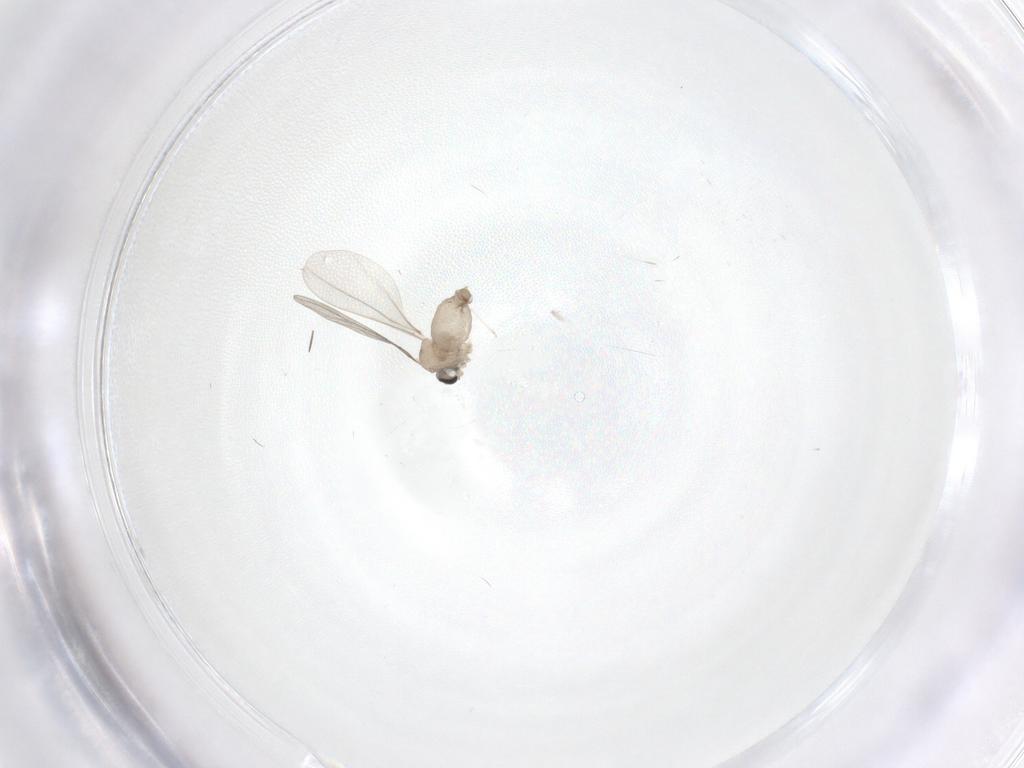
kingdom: Animalia
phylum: Arthropoda
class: Insecta
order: Diptera
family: Cecidomyiidae
